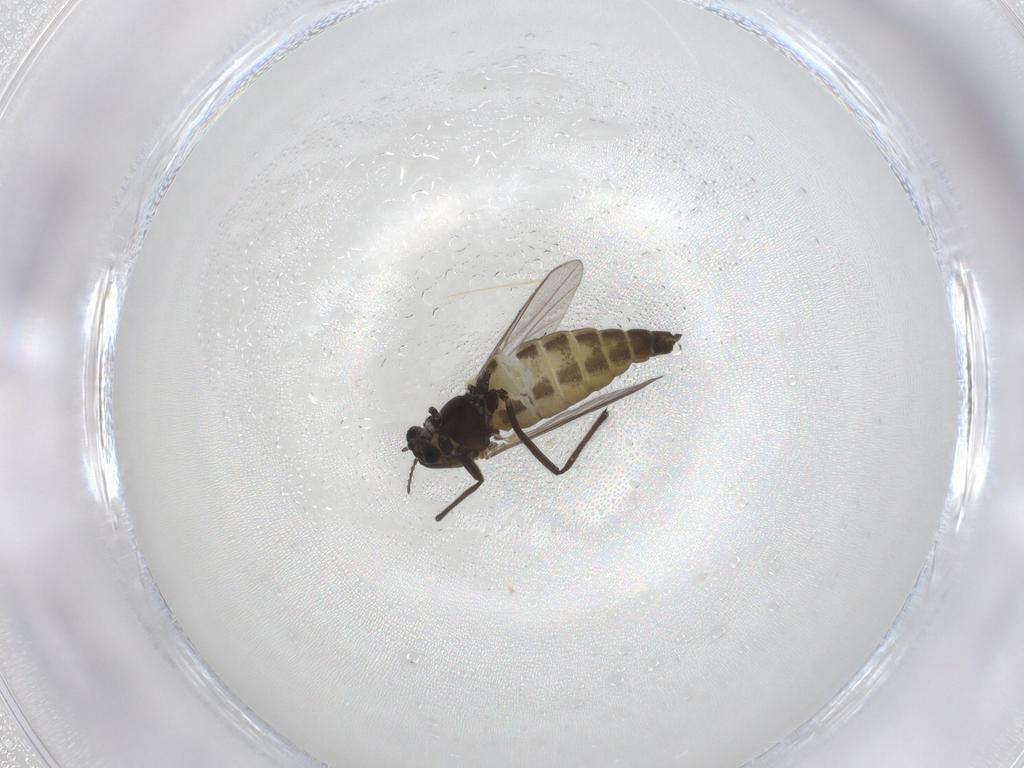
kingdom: Animalia
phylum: Arthropoda
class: Insecta
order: Diptera
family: Chironomidae
